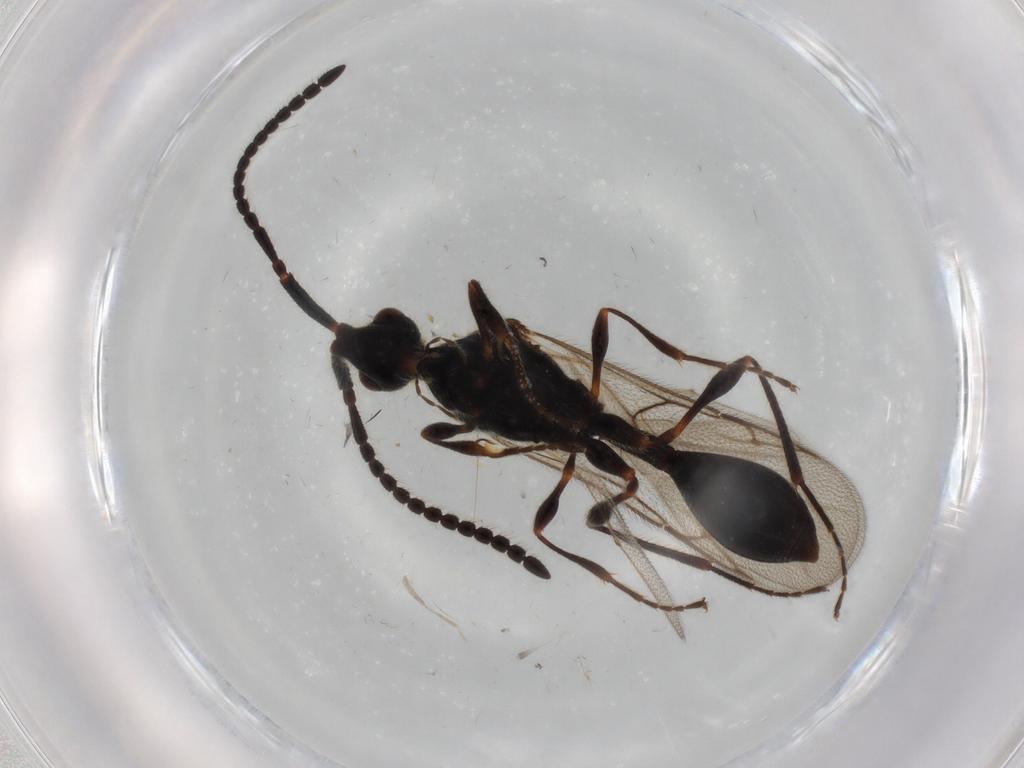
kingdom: Animalia
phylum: Arthropoda
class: Insecta
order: Hymenoptera
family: Diapriidae
